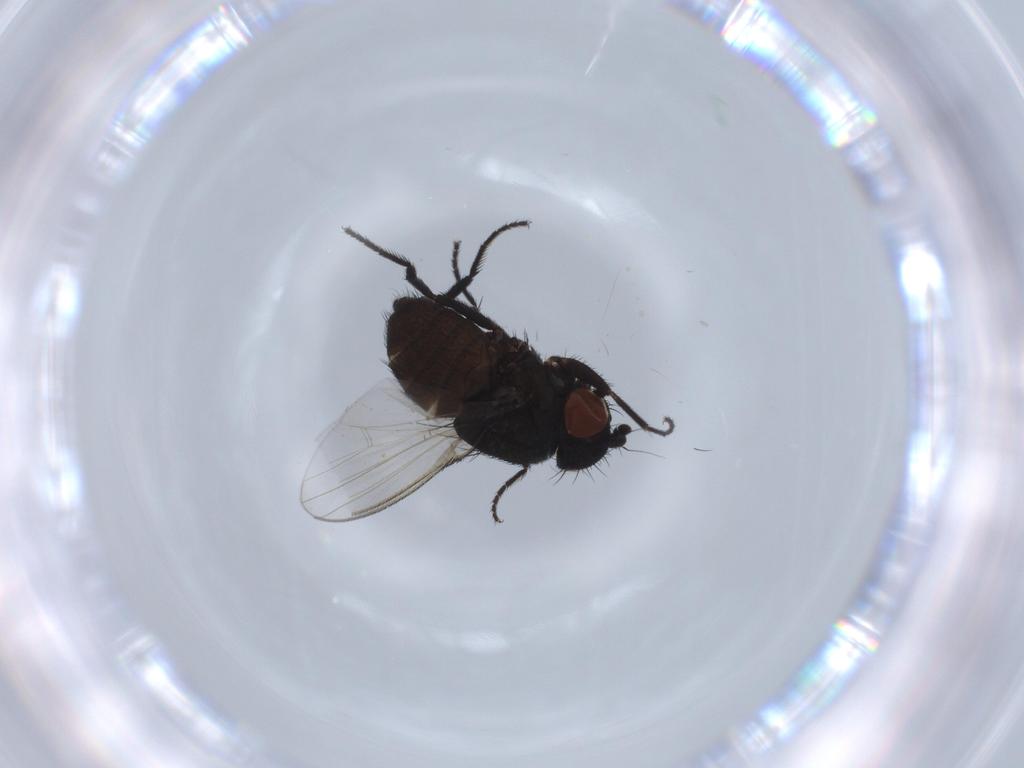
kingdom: Animalia
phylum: Arthropoda
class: Insecta
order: Diptera
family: Milichiidae
